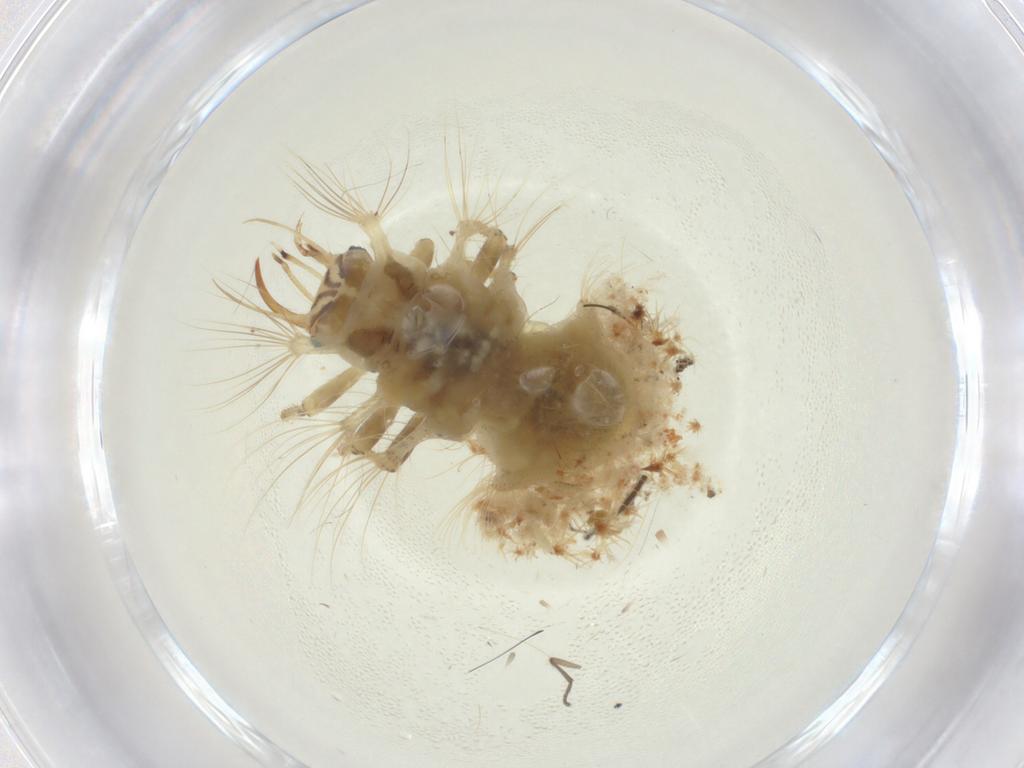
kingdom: Animalia
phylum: Arthropoda
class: Insecta
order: Neuroptera
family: Chrysopidae
